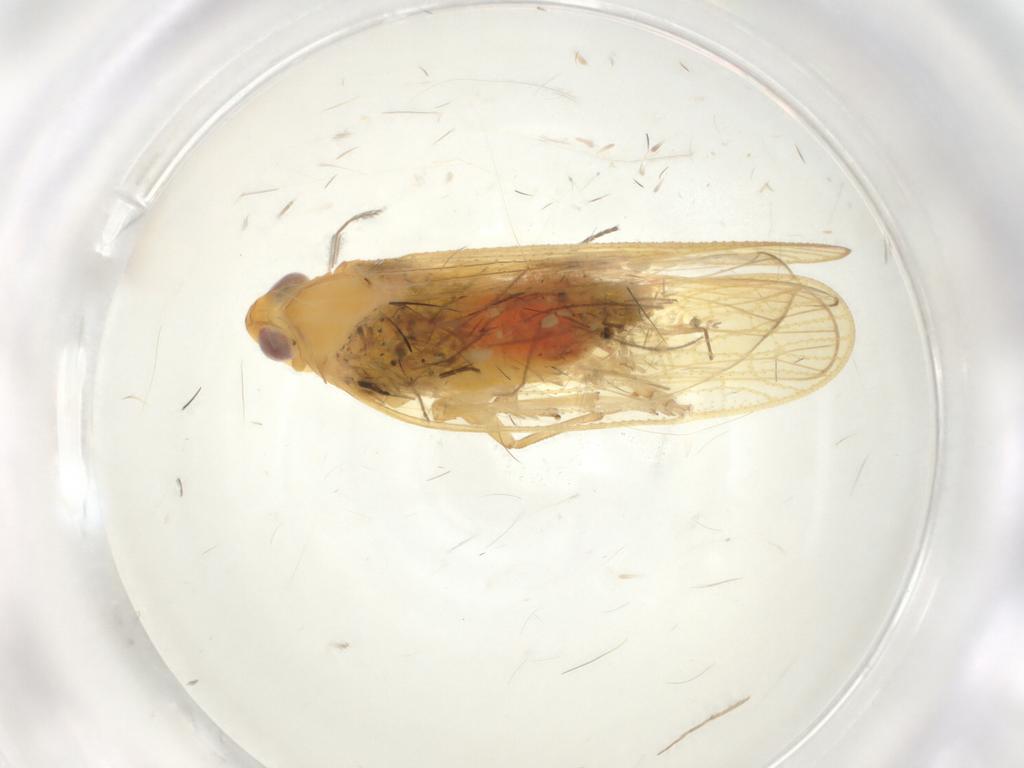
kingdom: Animalia
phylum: Arthropoda
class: Insecta
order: Hemiptera
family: Cixiidae
